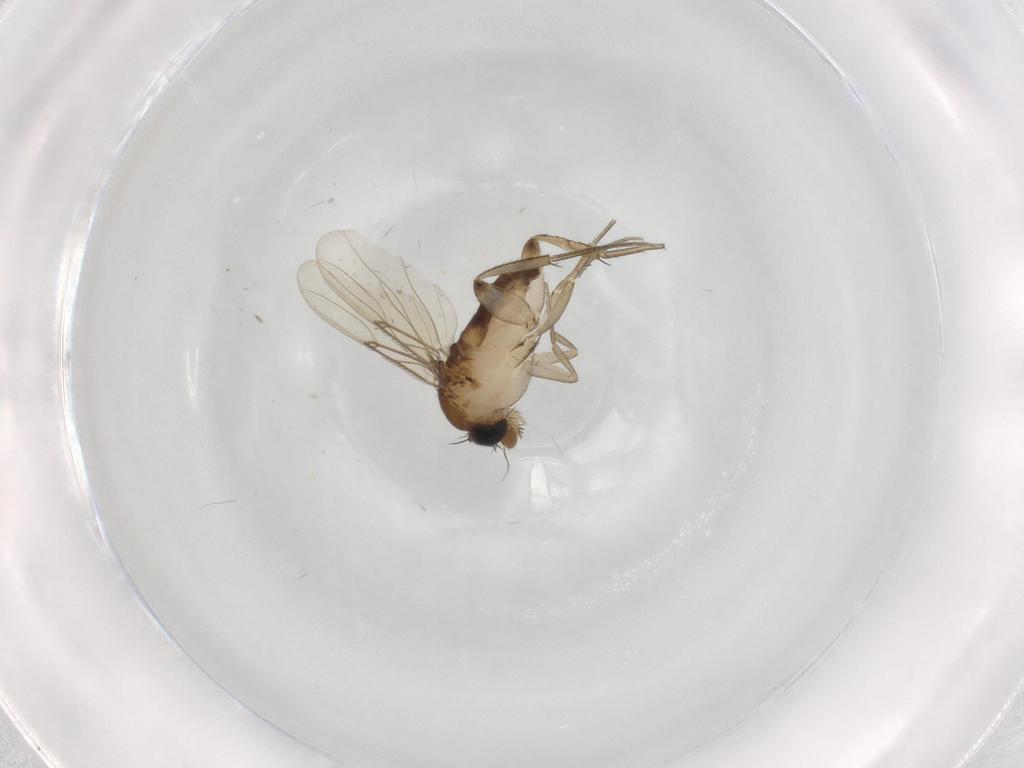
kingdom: Animalia
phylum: Arthropoda
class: Insecta
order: Diptera
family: Phoridae
